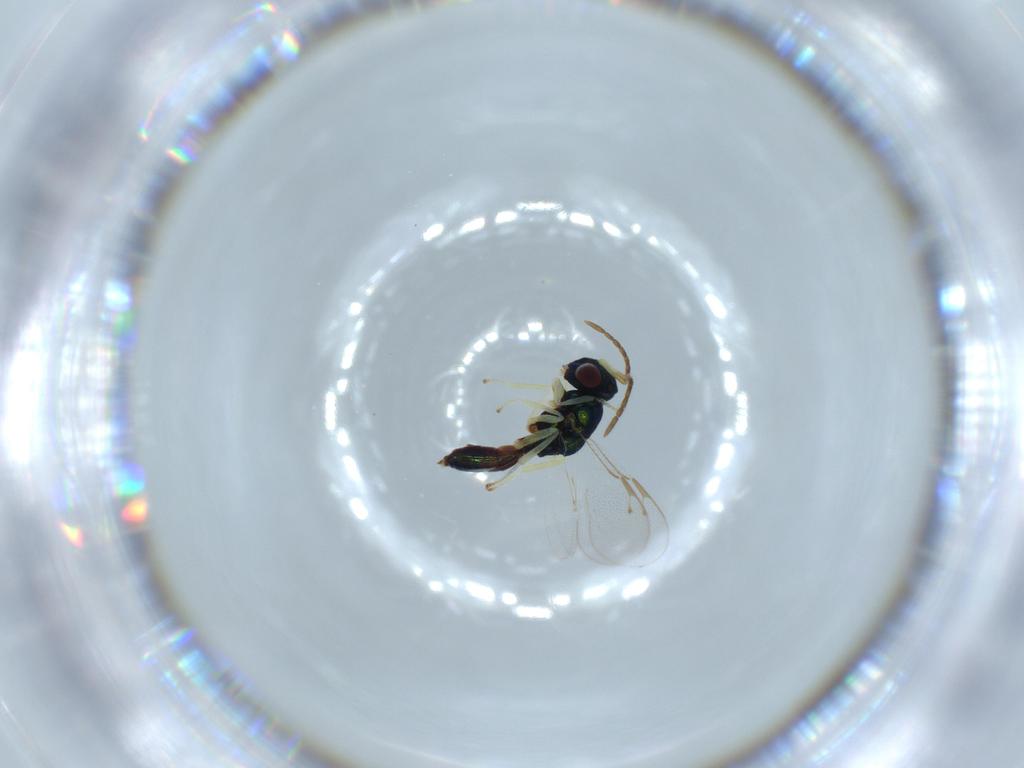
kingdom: Animalia
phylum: Arthropoda
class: Insecta
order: Hymenoptera
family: Pteromalidae
